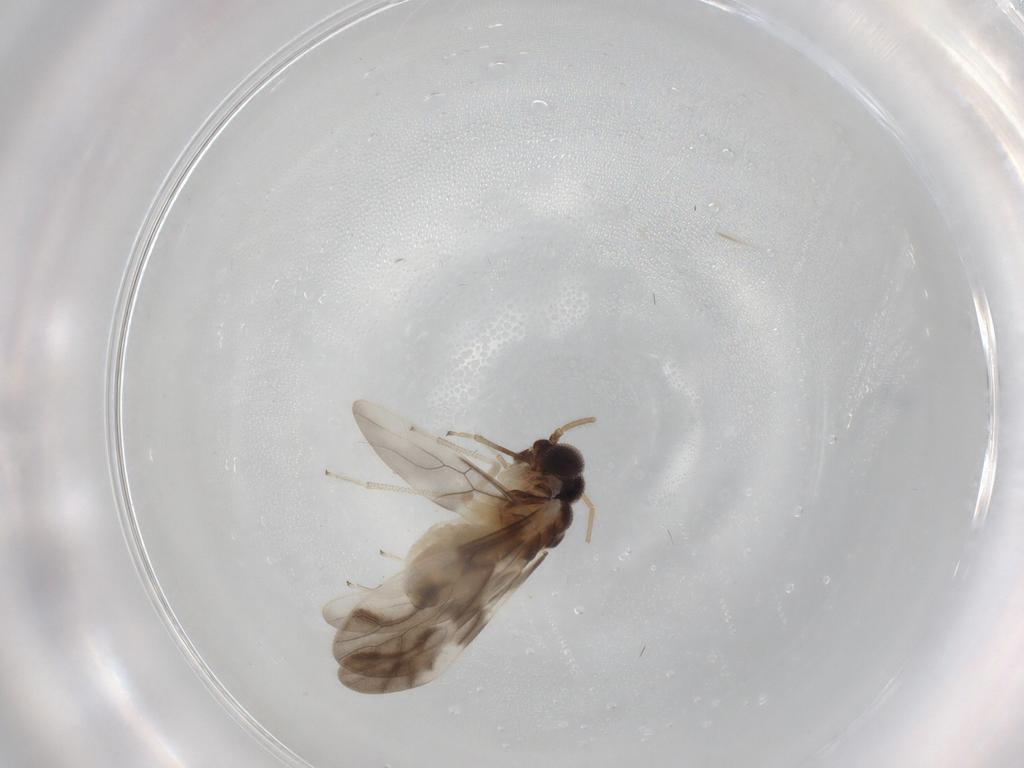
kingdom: Animalia
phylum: Arthropoda
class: Insecta
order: Psocodea
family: Caeciliusidae
